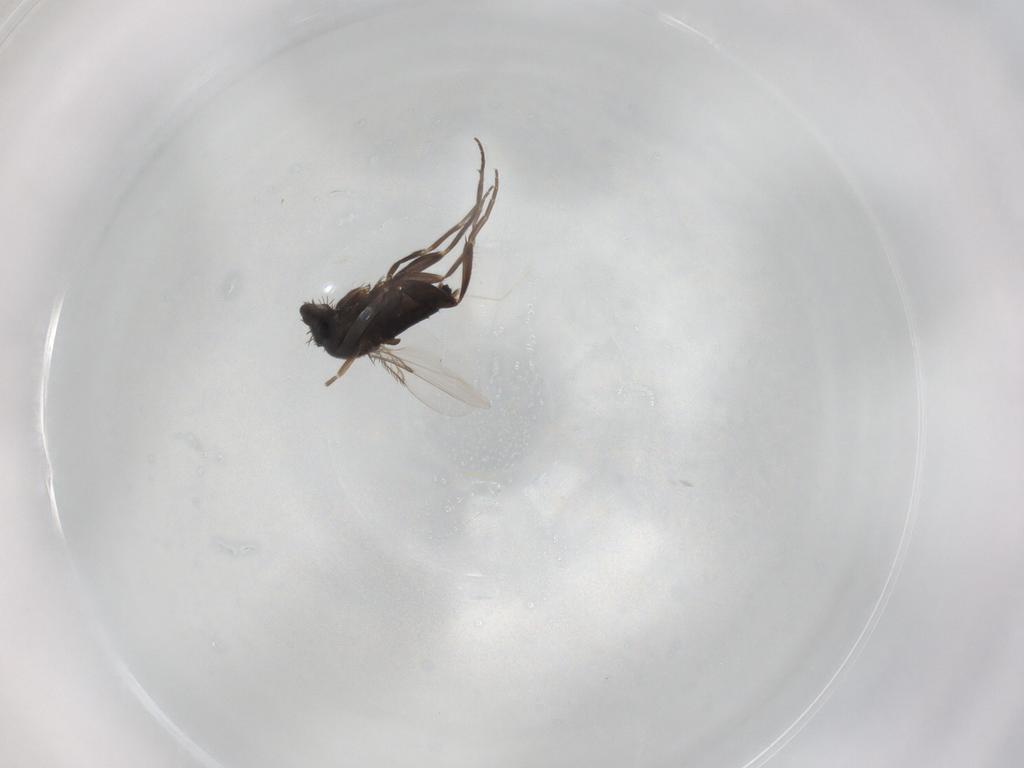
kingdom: Animalia
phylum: Arthropoda
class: Insecta
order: Diptera
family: Phoridae
